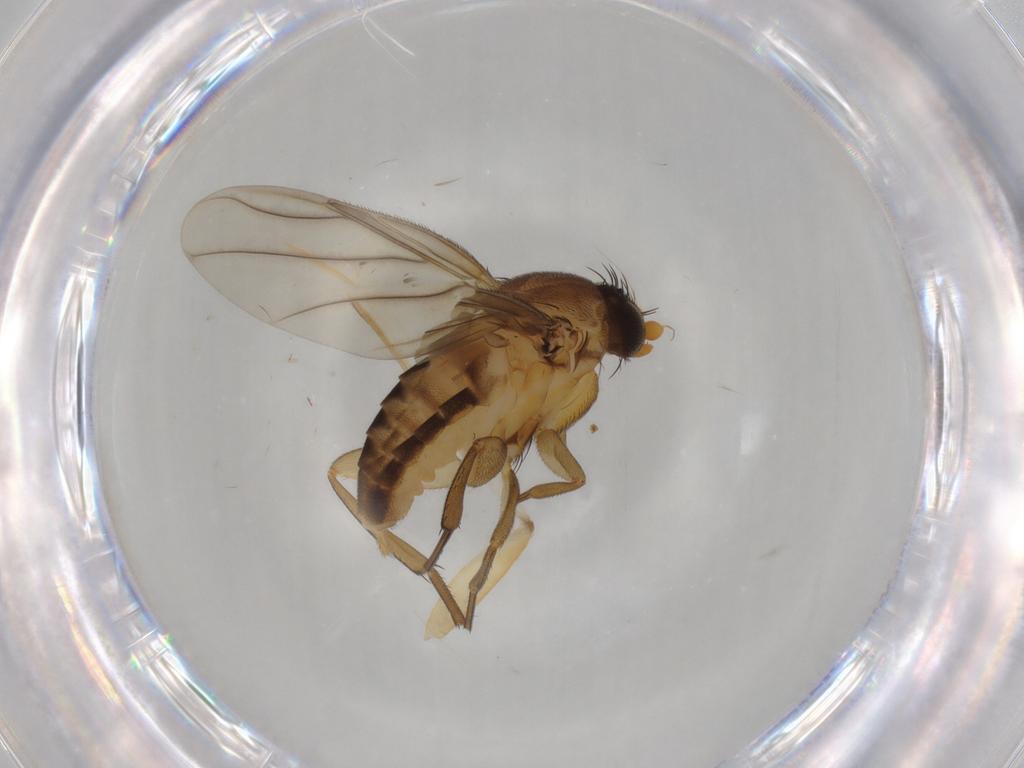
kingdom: Animalia
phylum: Arthropoda
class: Insecta
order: Diptera
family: Phoridae
